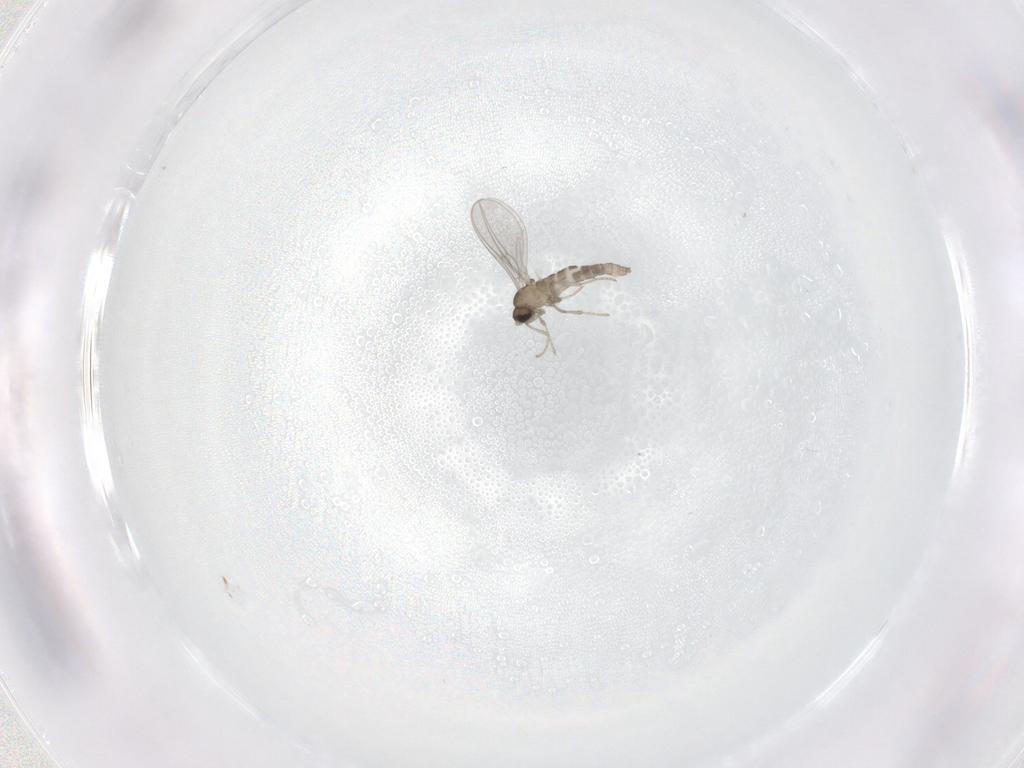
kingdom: Animalia
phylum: Arthropoda
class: Insecta
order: Diptera
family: Cecidomyiidae
